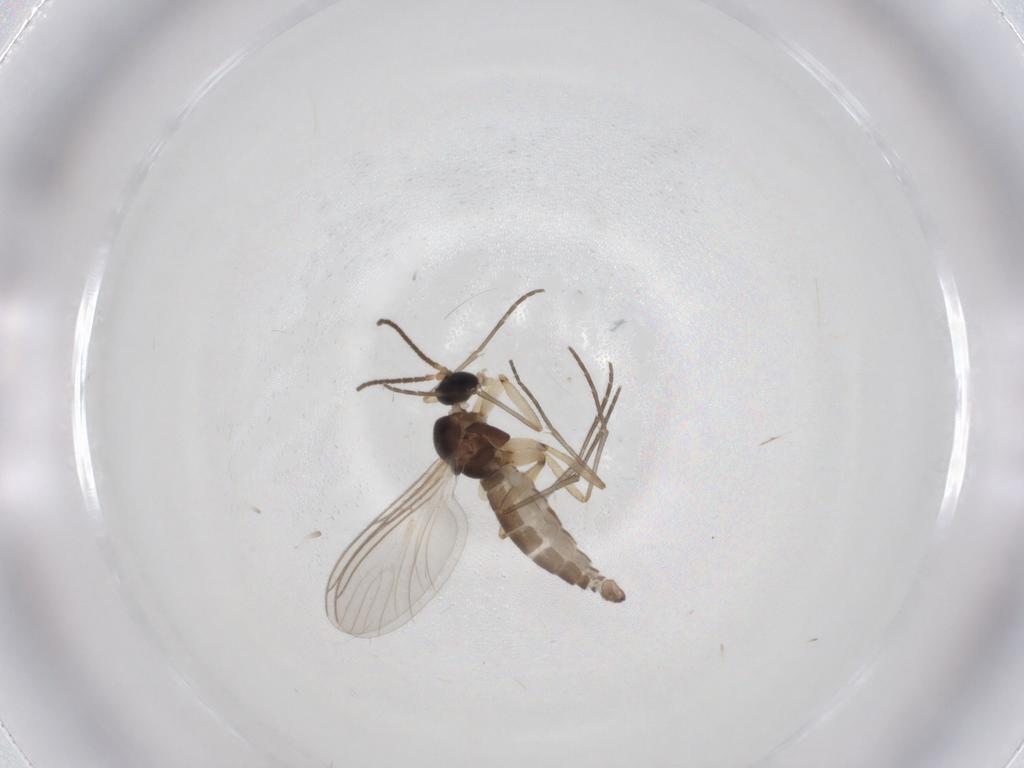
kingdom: Animalia
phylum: Arthropoda
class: Insecta
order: Diptera
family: Sciaridae
